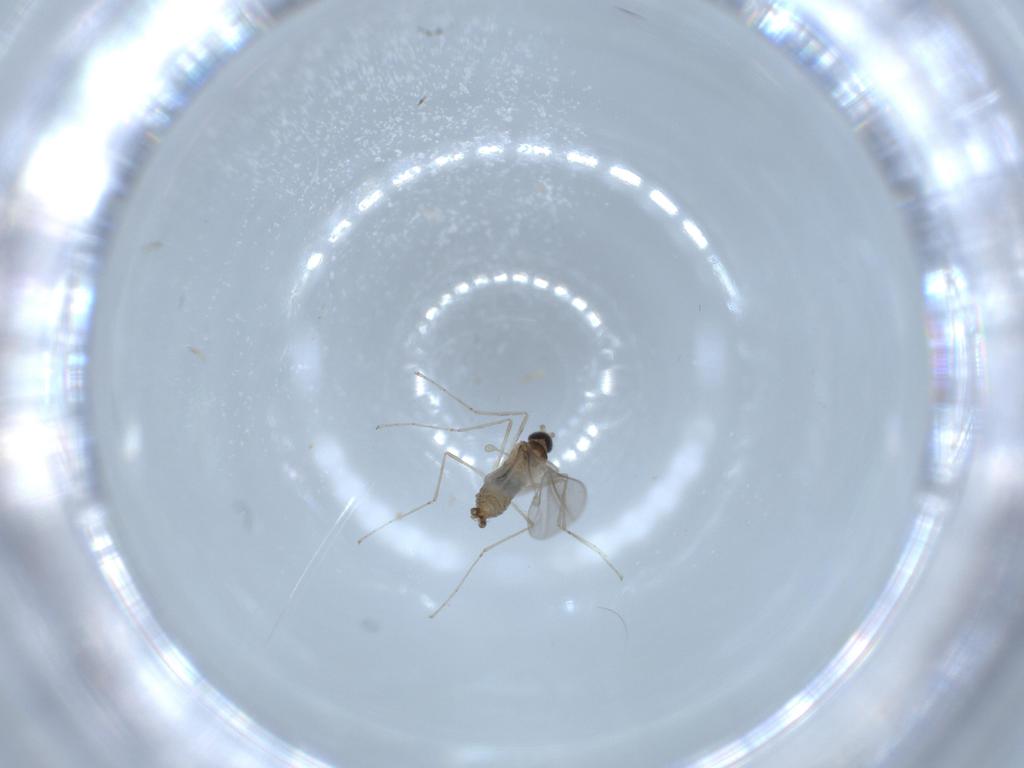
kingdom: Animalia
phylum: Arthropoda
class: Insecta
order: Diptera
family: Cecidomyiidae
